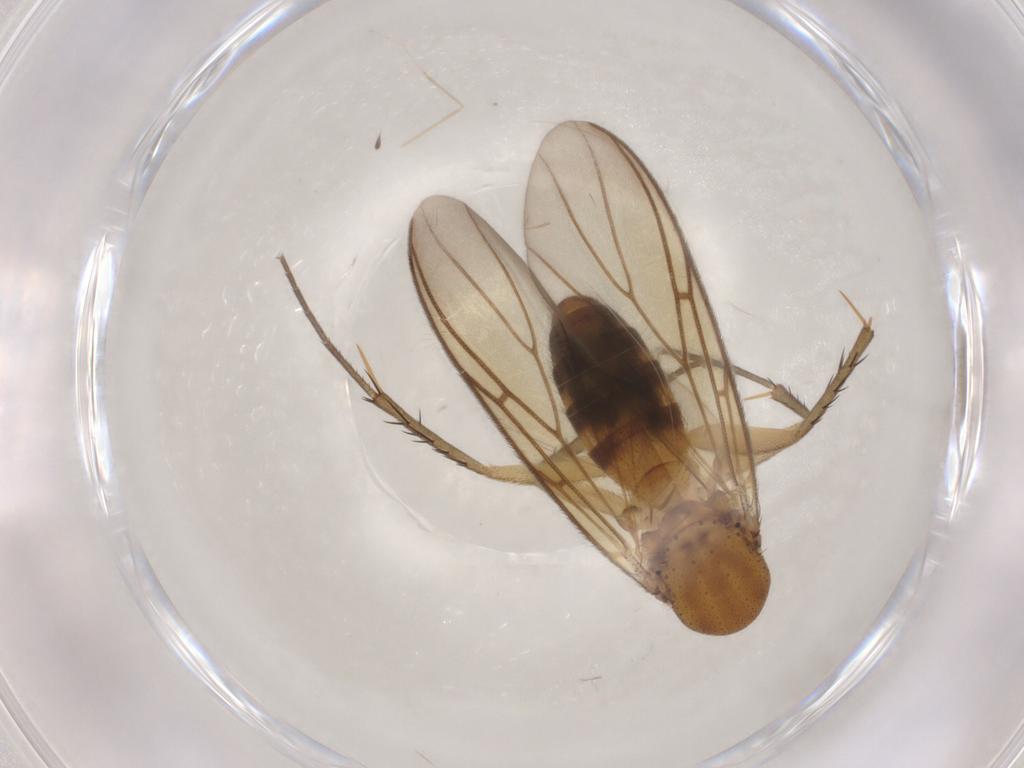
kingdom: Animalia
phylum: Arthropoda
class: Insecta
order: Diptera
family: Mycetophilidae
